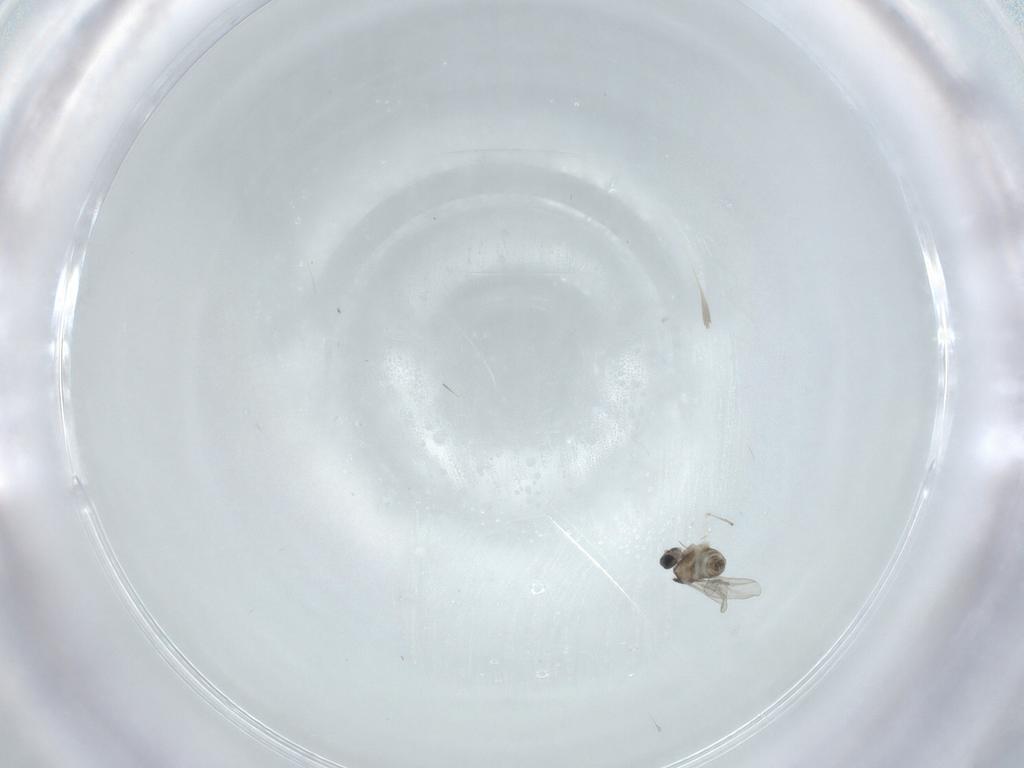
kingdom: Animalia
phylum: Arthropoda
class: Insecta
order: Diptera
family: Cecidomyiidae
